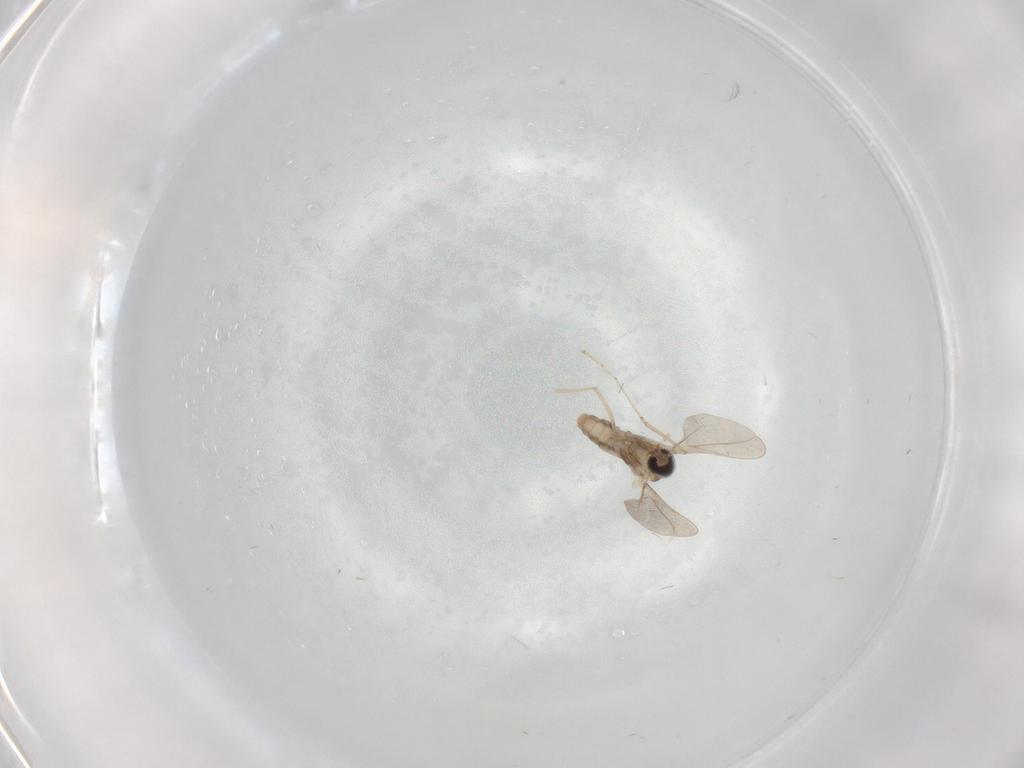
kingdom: Animalia
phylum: Arthropoda
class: Insecta
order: Diptera
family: Cecidomyiidae
